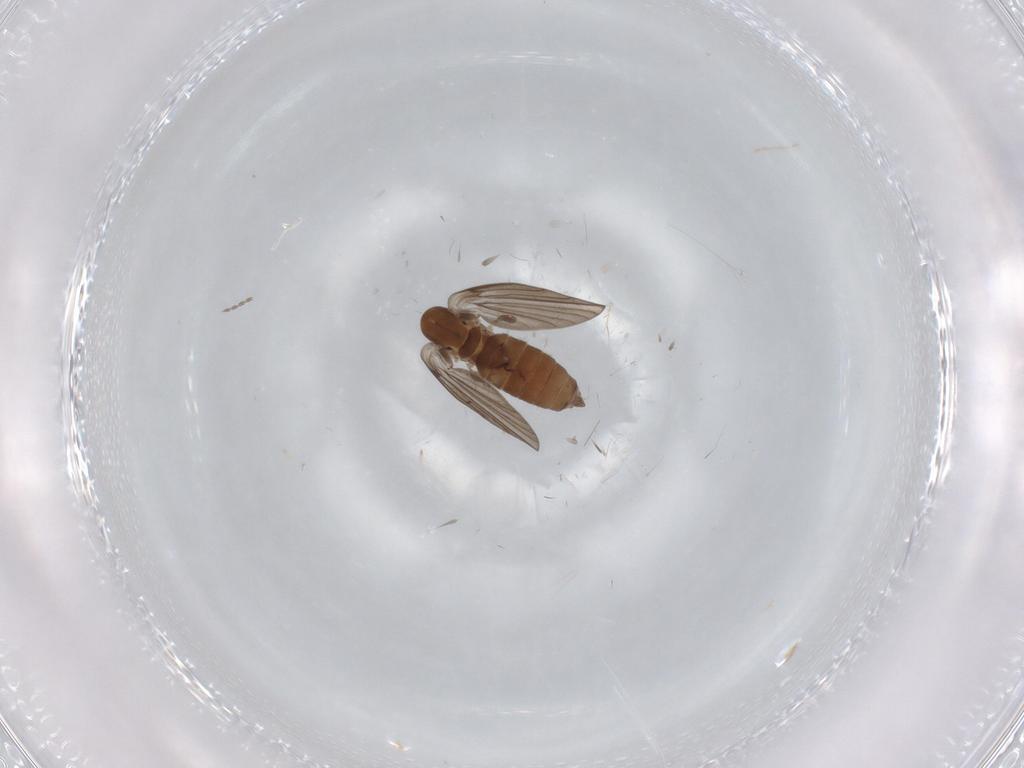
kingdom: Animalia
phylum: Arthropoda
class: Insecta
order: Diptera
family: Psychodidae
